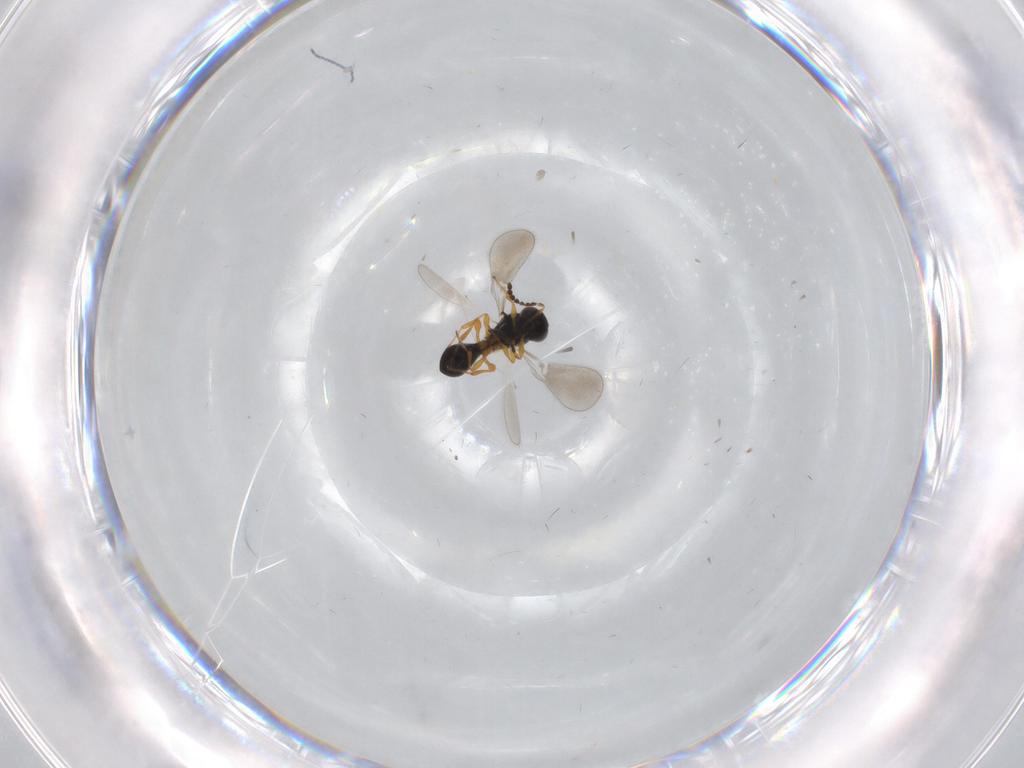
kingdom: Animalia
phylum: Arthropoda
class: Insecta
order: Hymenoptera
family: Platygastridae
